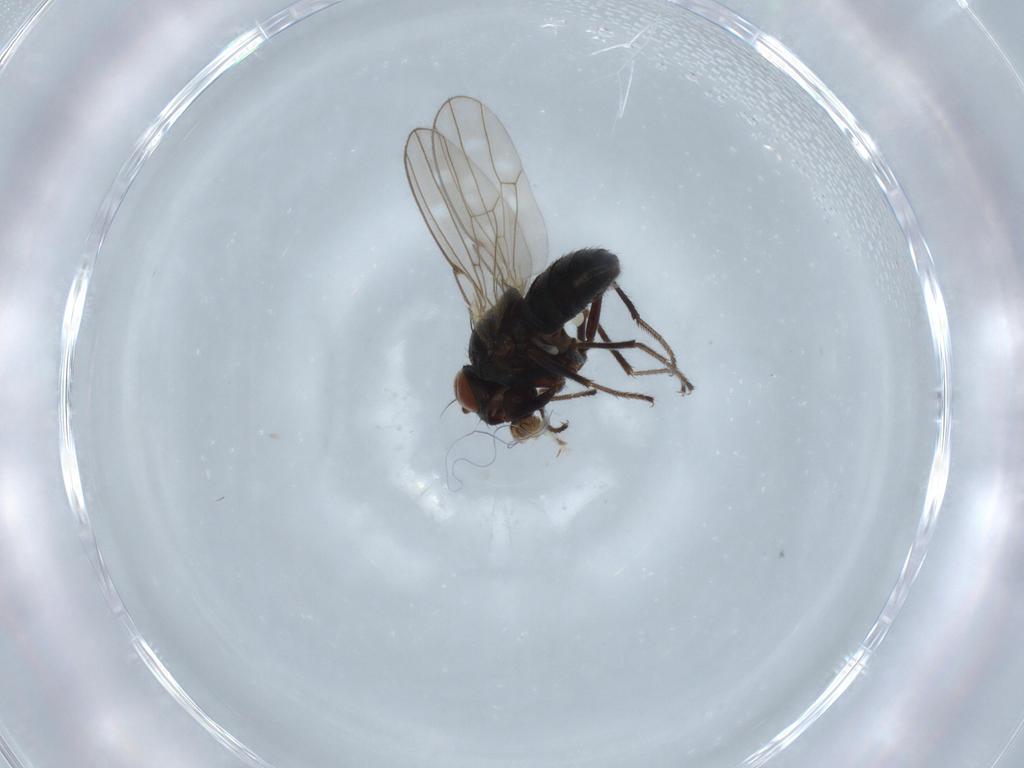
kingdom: Animalia
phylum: Arthropoda
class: Insecta
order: Diptera
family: Ephydridae
